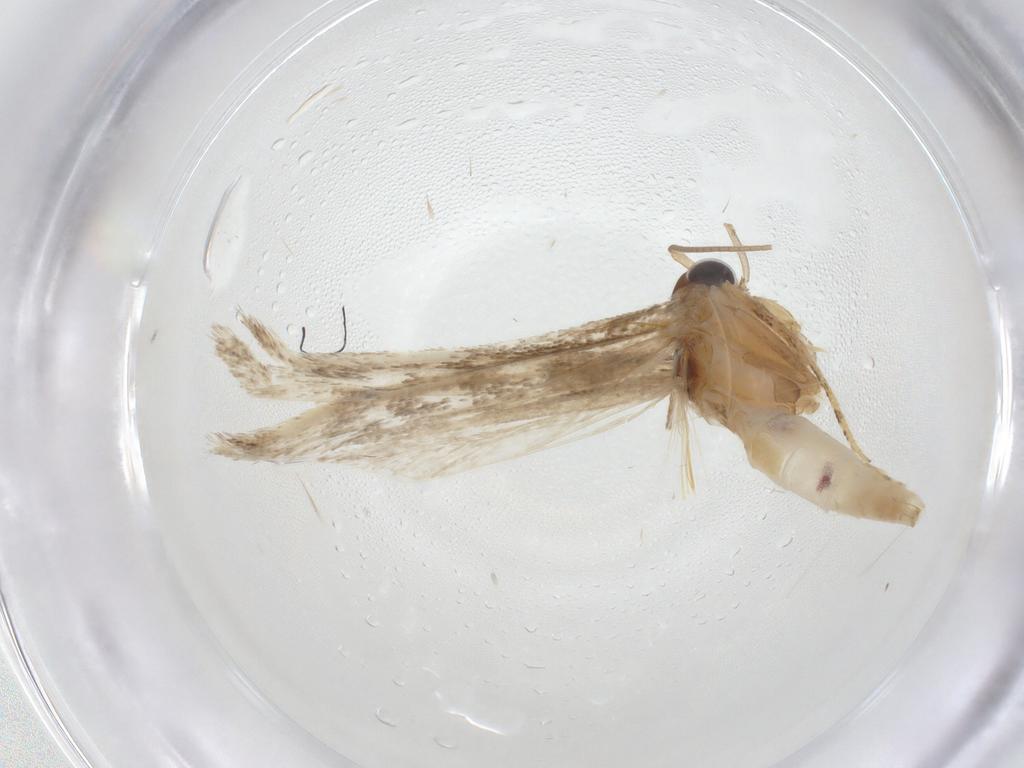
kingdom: Animalia
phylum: Arthropoda
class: Insecta
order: Lepidoptera
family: Gelechiidae
